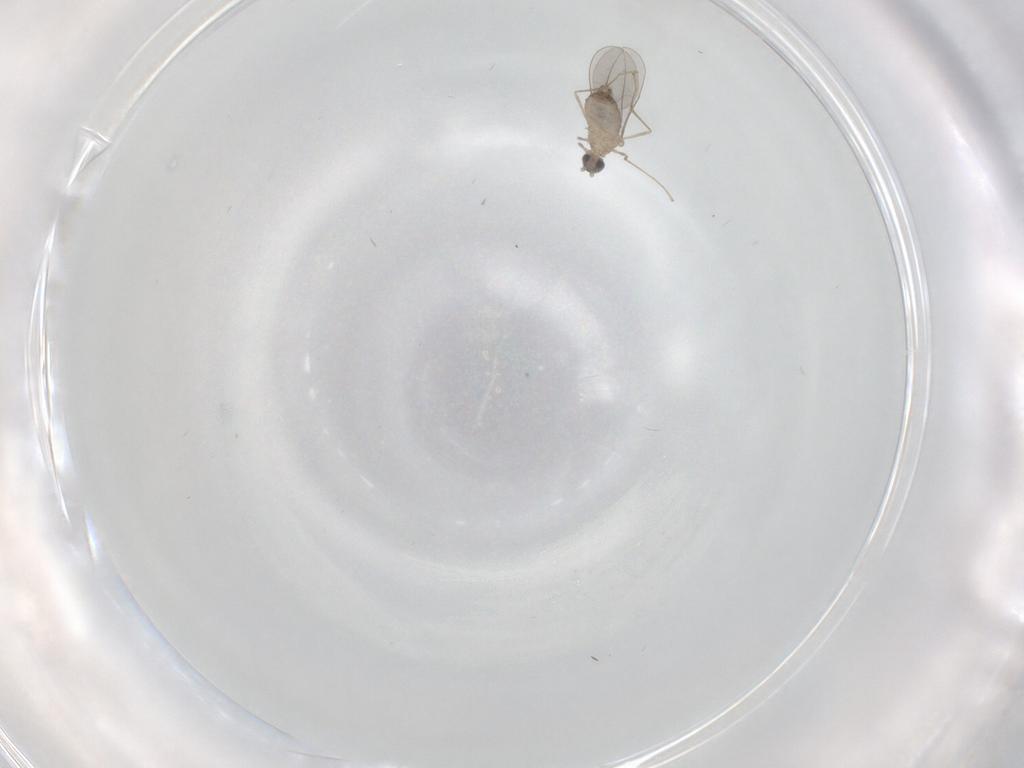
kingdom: Animalia
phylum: Arthropoda
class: Insecta
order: Diptera
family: Cecidomyiidae
